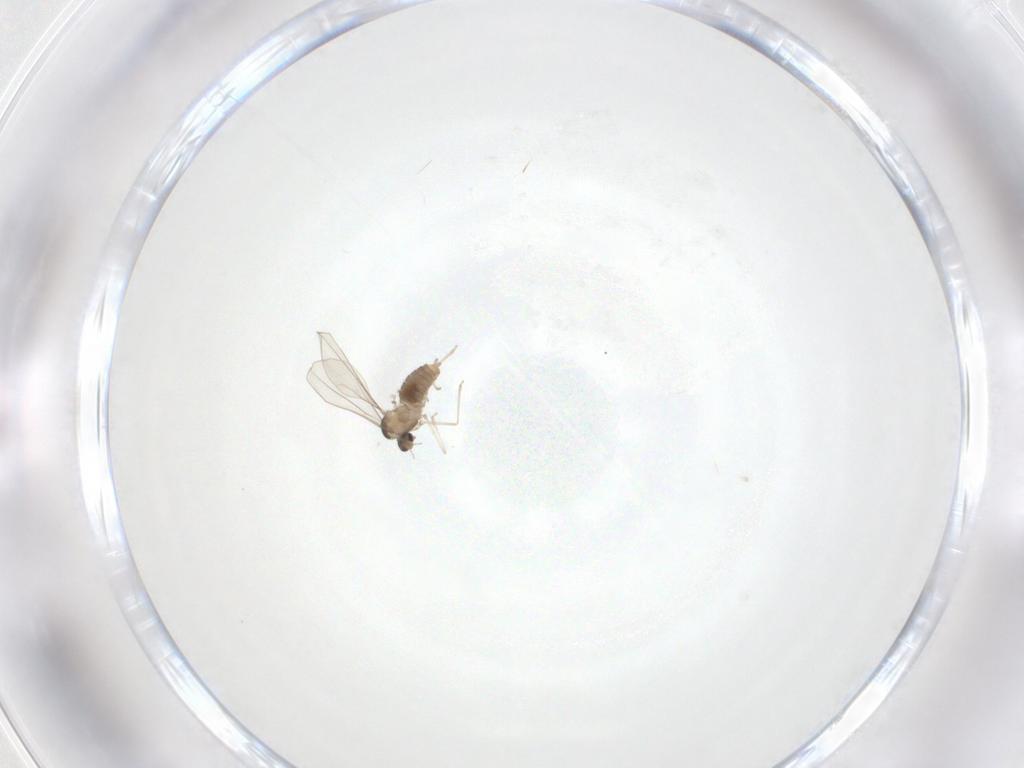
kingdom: Animalia
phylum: Arthropoda
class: Insecta
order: Diptera
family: Cecidomyiidae
